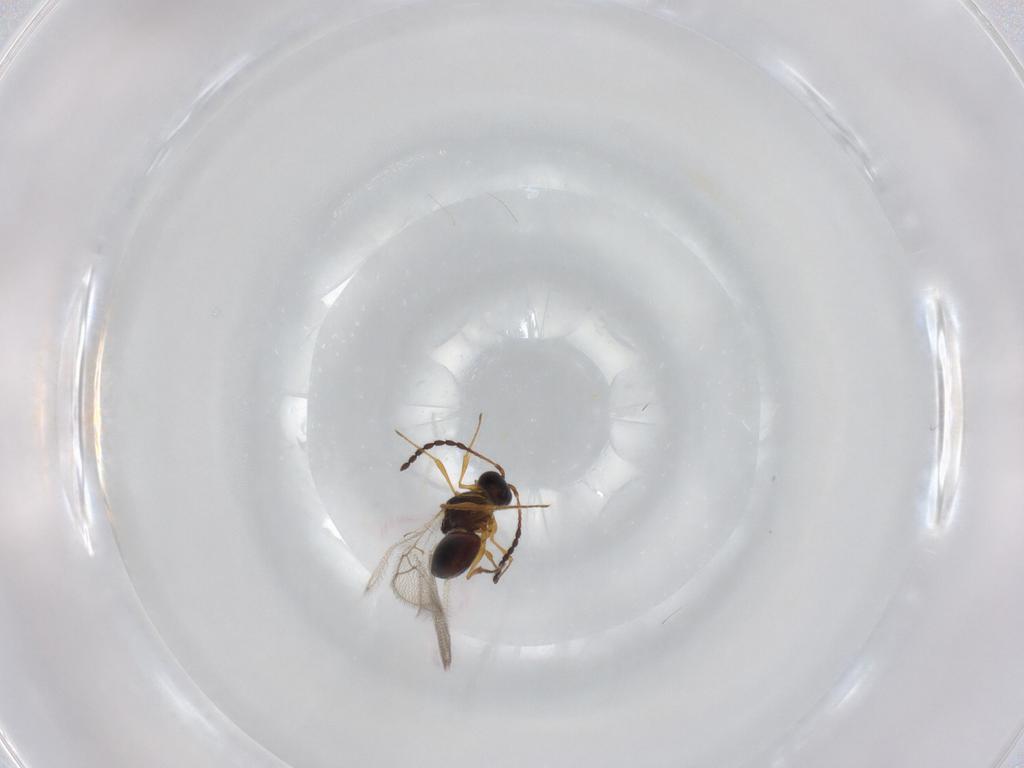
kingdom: Animalia
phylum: Arthropoda
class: Insecta
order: Hymenoptera
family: Figitidae
